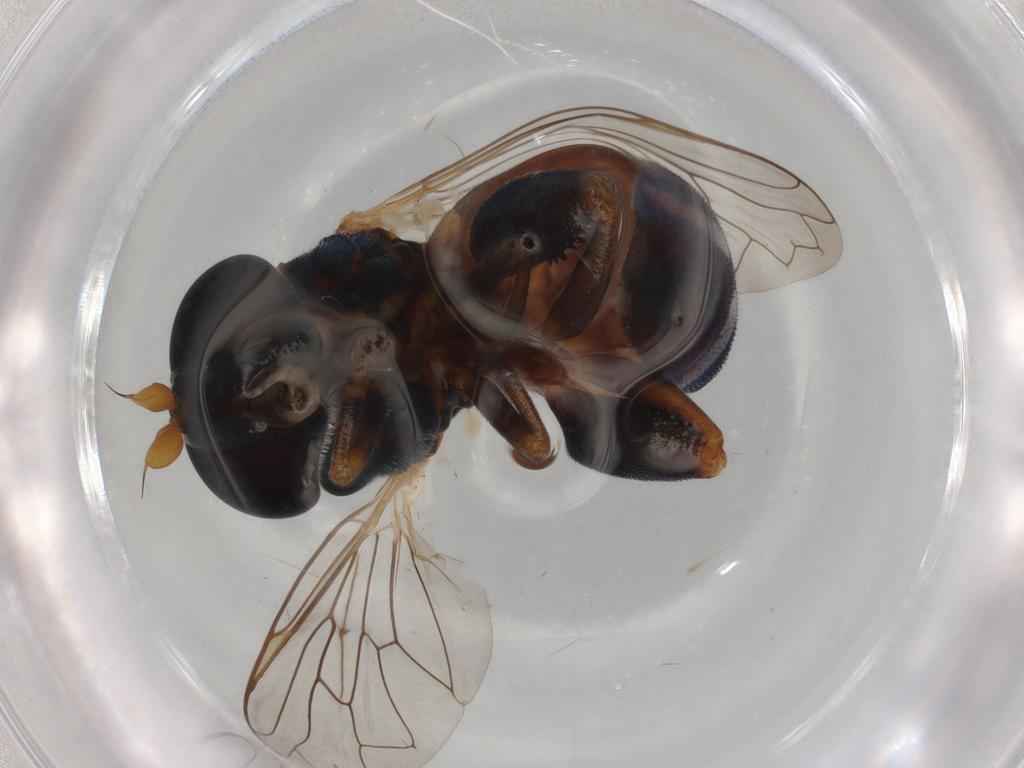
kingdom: Animalia
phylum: Arthropoda
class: Insecta
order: Diptera
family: Syrphidae
